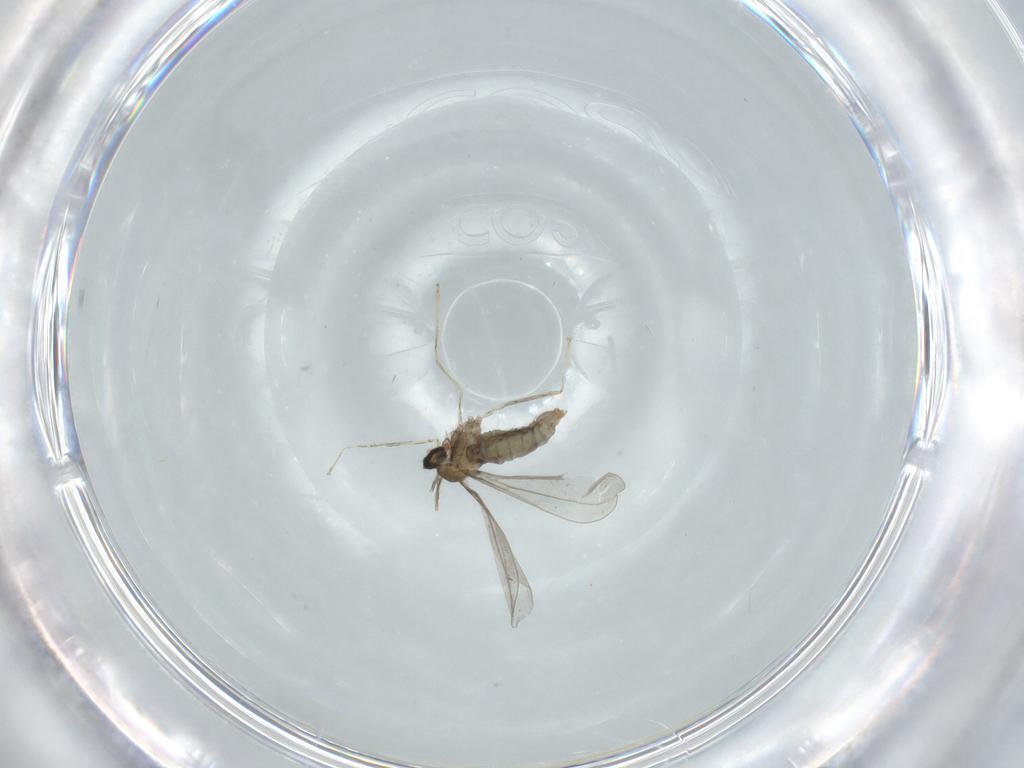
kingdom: Animalia
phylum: Arthropoda
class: Insecta
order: Diptera
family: Cecidomyiidae
